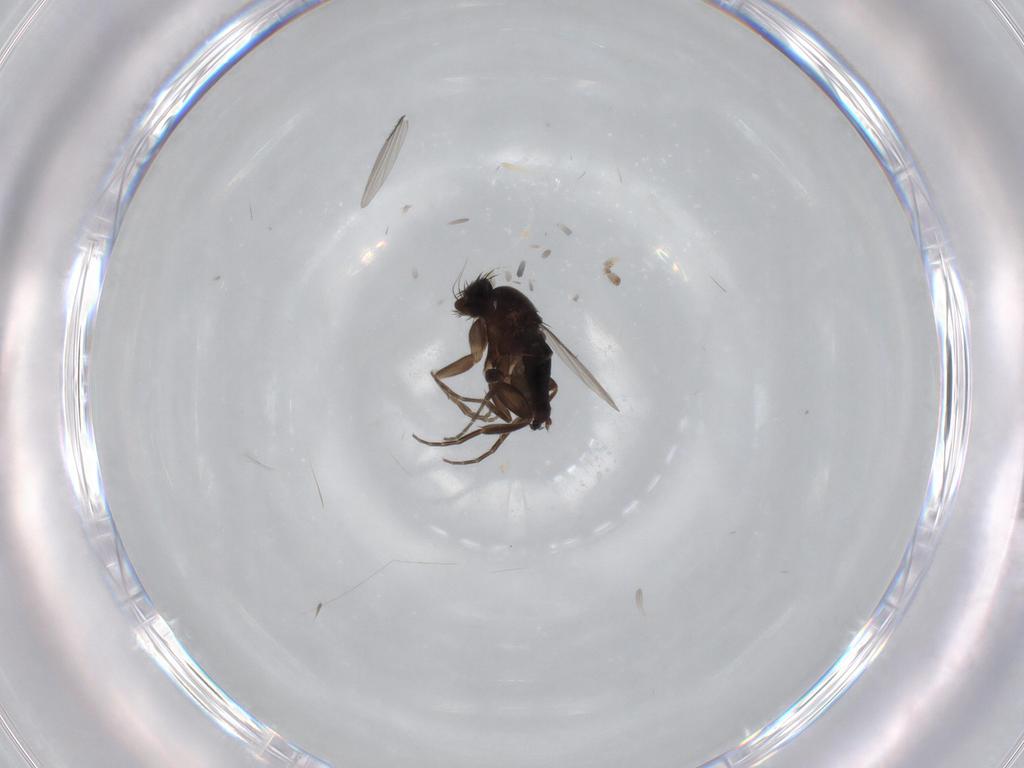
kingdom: Animalia
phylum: Arthropoda
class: Insecta
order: Diptera
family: Phoridae
